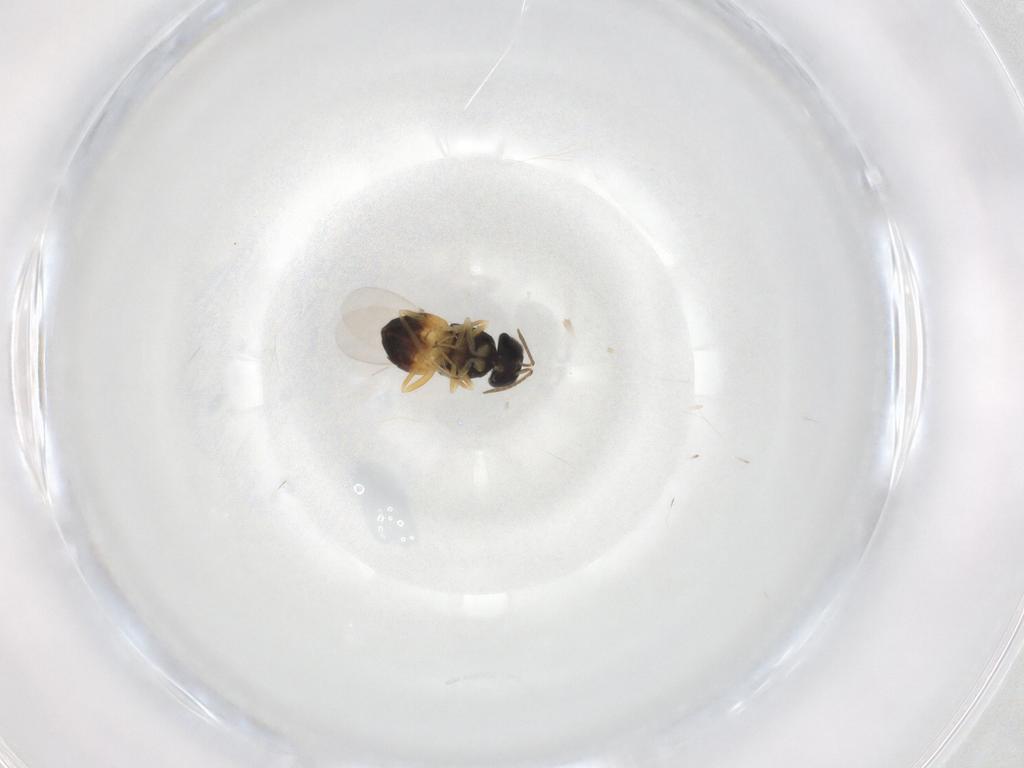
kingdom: Animalia
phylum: Arthropoda
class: Insecta
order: Hymenoptera
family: Encyrtidae
